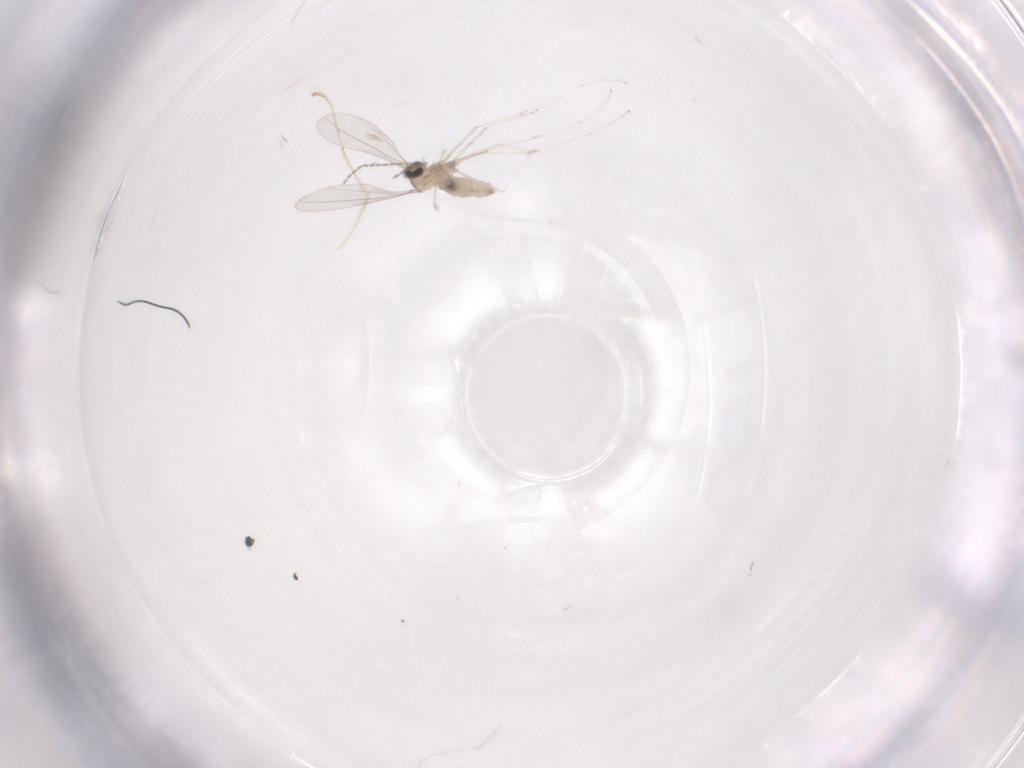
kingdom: Animalia
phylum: Arthropoda
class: Insecta
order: Diptera
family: Cecidomyiidae
